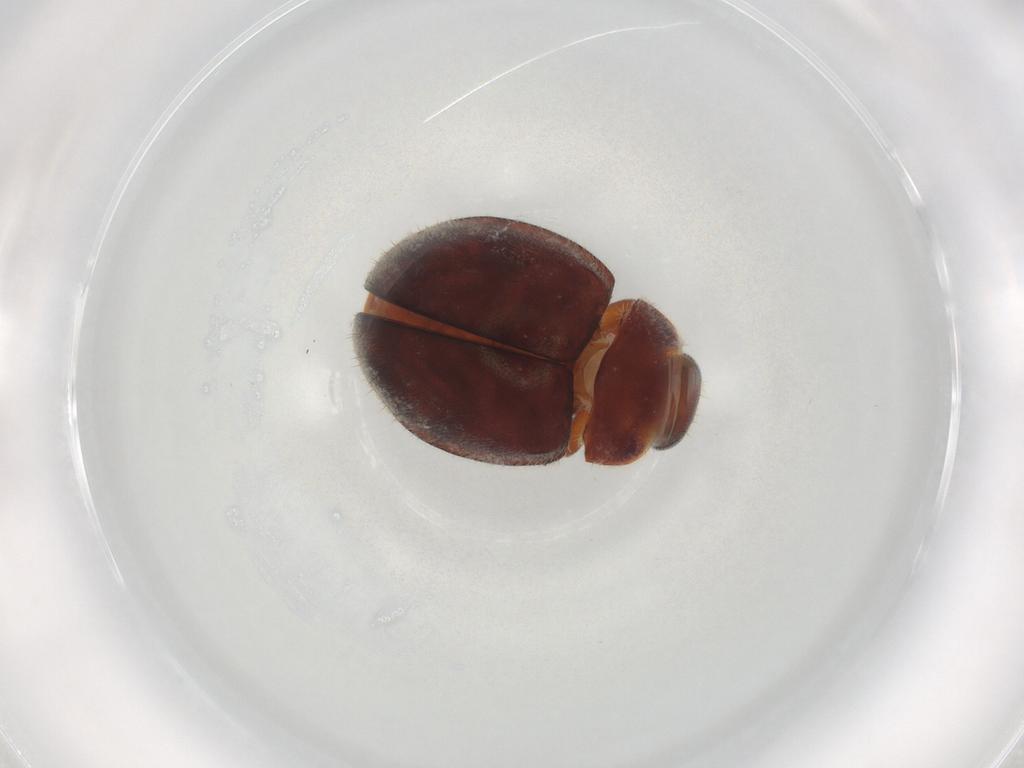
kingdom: Animalia
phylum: Arthropoda
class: Insecta
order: Coleoptera
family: Coccinellidae
